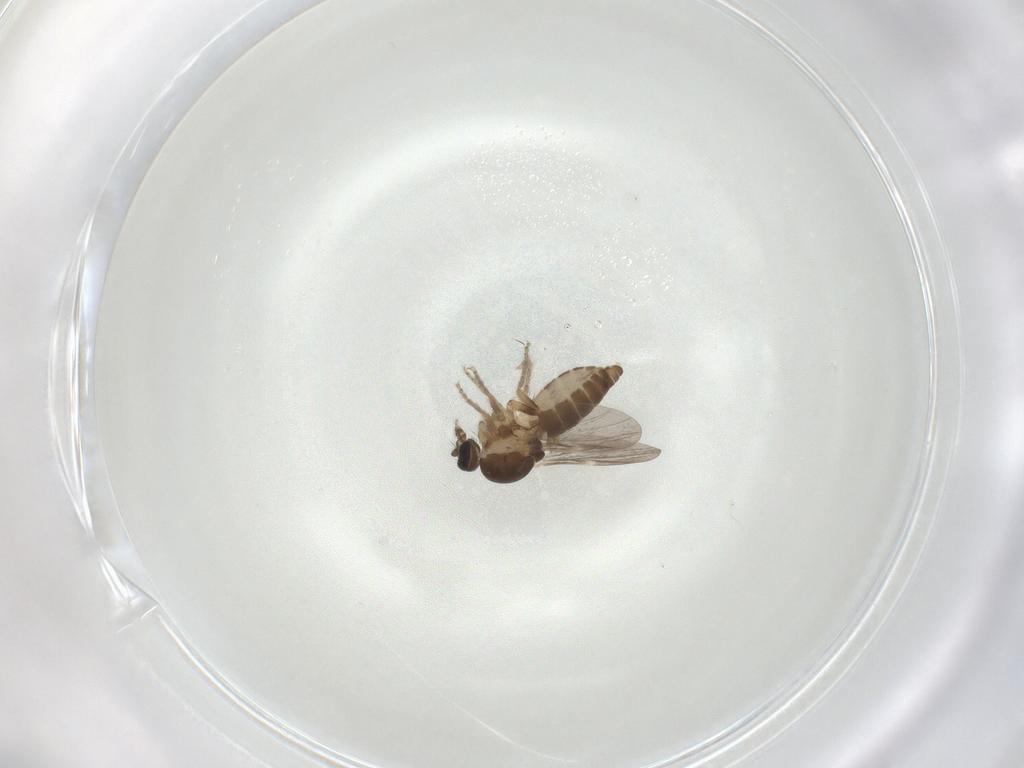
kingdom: Animalia
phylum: Arthropoda
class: Insecta
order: Diptera
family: Ceratopogonidae
